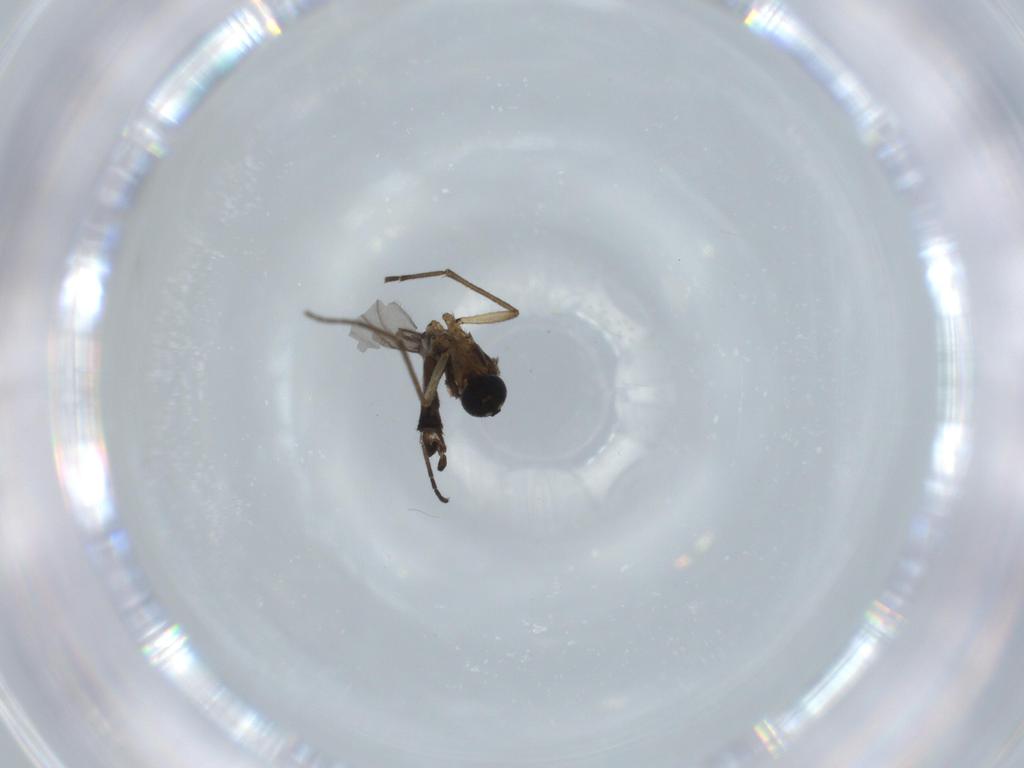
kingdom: Animalia
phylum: Arthropoda
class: Insecta
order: Diptera
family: Sciaridae
